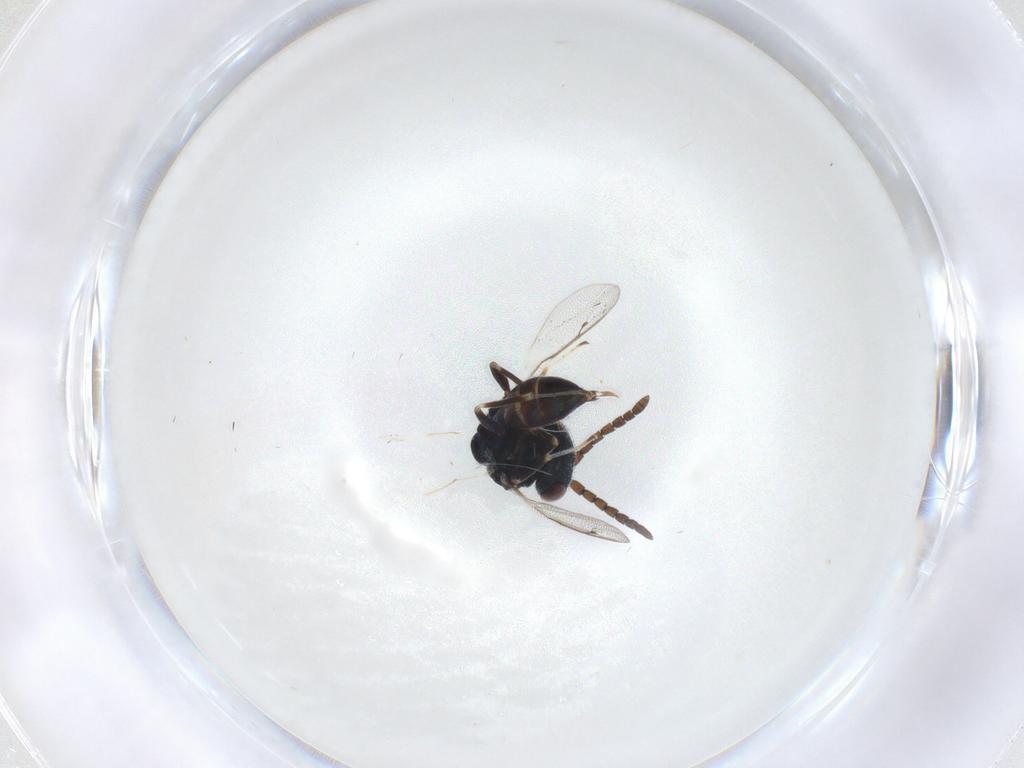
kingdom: Animalia
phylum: Arthropoda
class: Insecta
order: Hymenoptera
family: Pteromalidae
